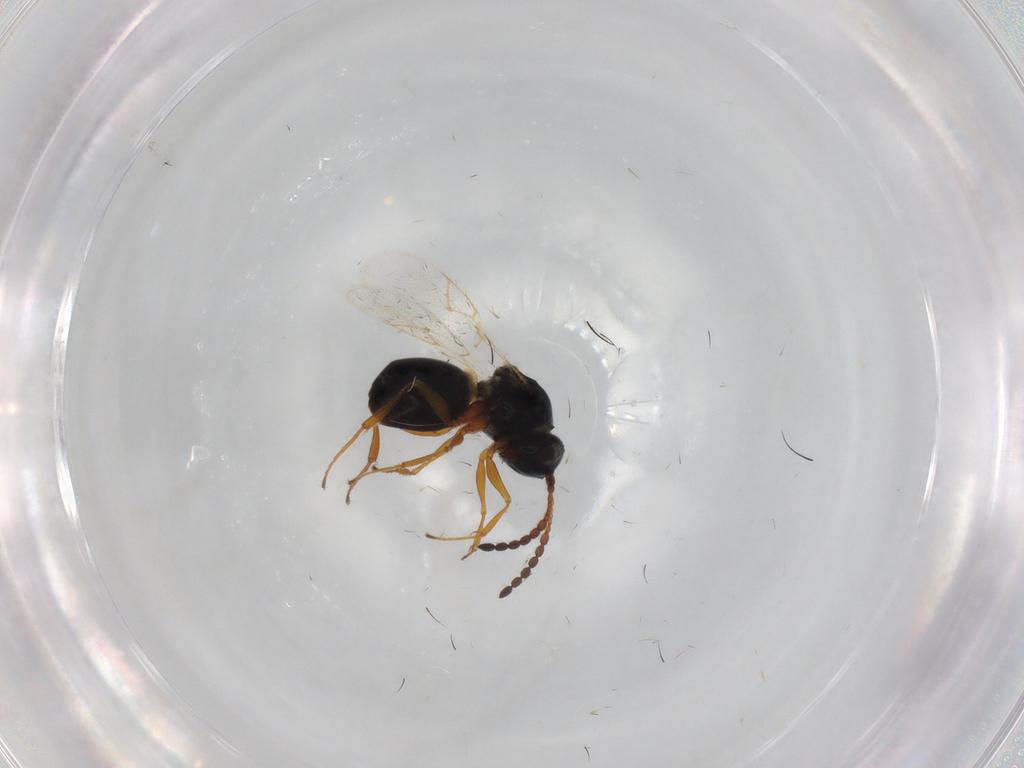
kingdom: Animalia
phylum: Arthropoda
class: Insecta
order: Hymenoptera
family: Figitidae
